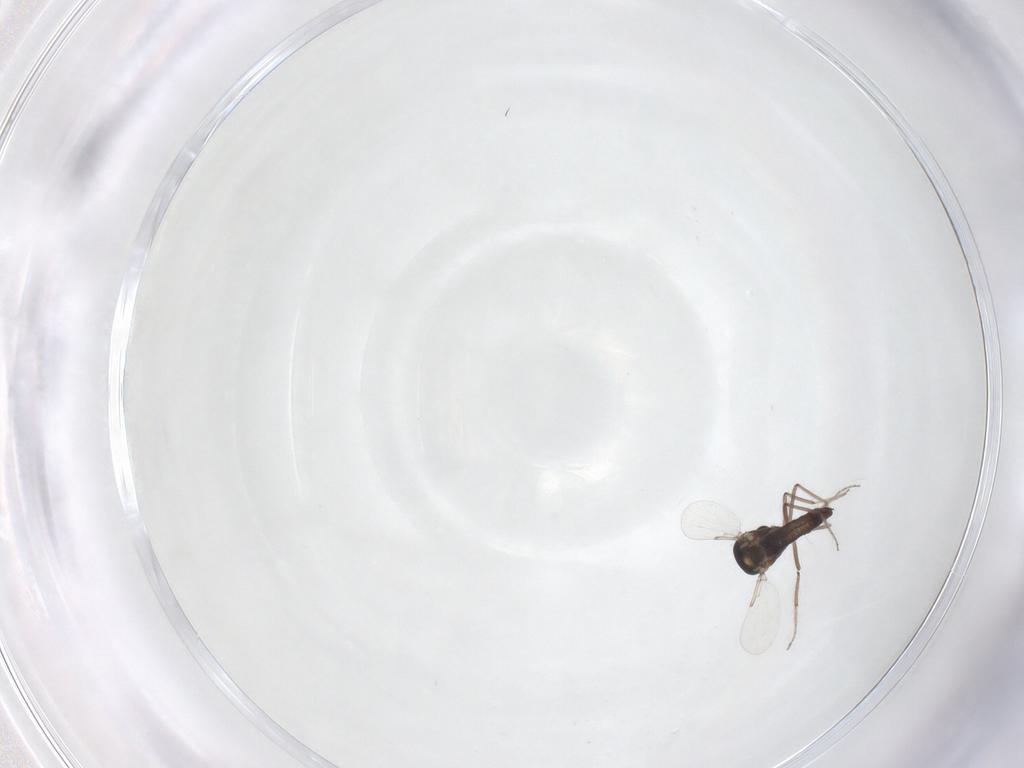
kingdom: Animalia
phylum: Arthropoda
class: Insecta
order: Diptera
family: Ceratopogonidae
